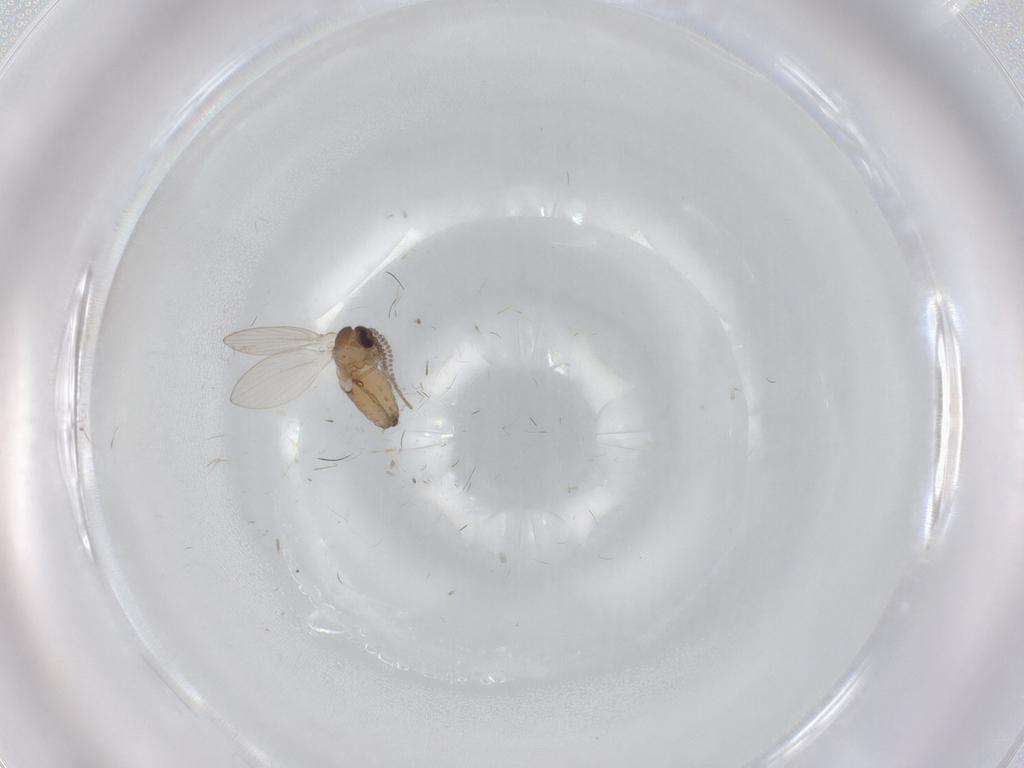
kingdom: Animalia
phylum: Arthropoda
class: Insecta
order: Diptera
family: Psychodidae
